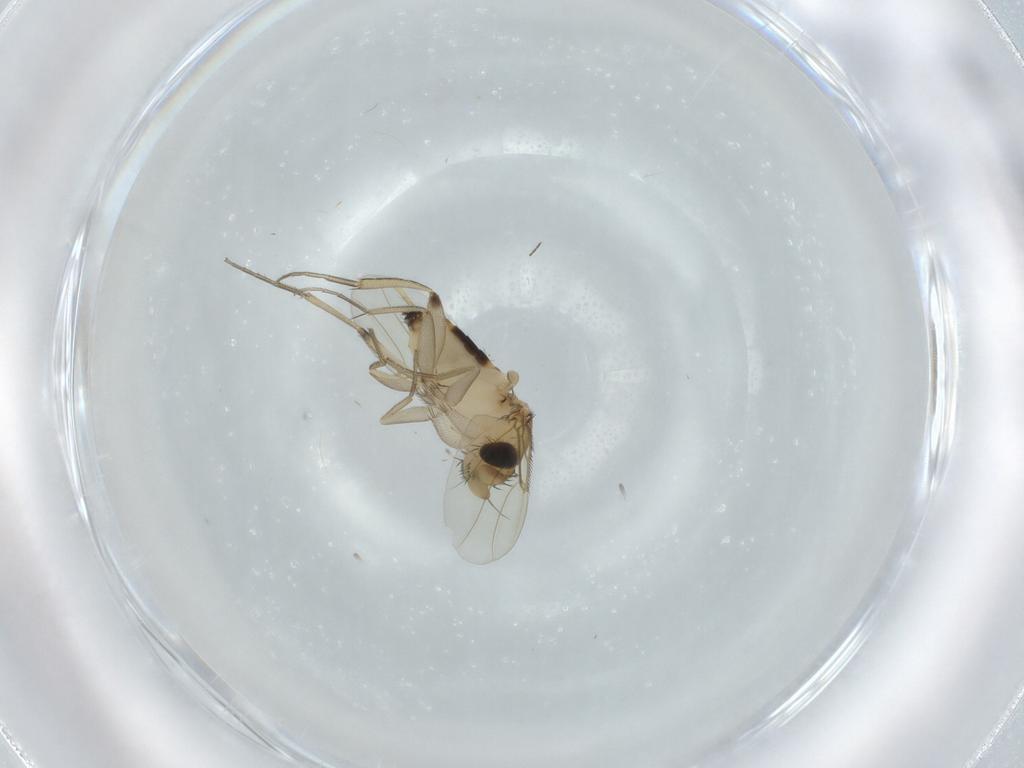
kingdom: Animalia
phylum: Arthropoda
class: Insecta
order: Diptera
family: Phoridae
